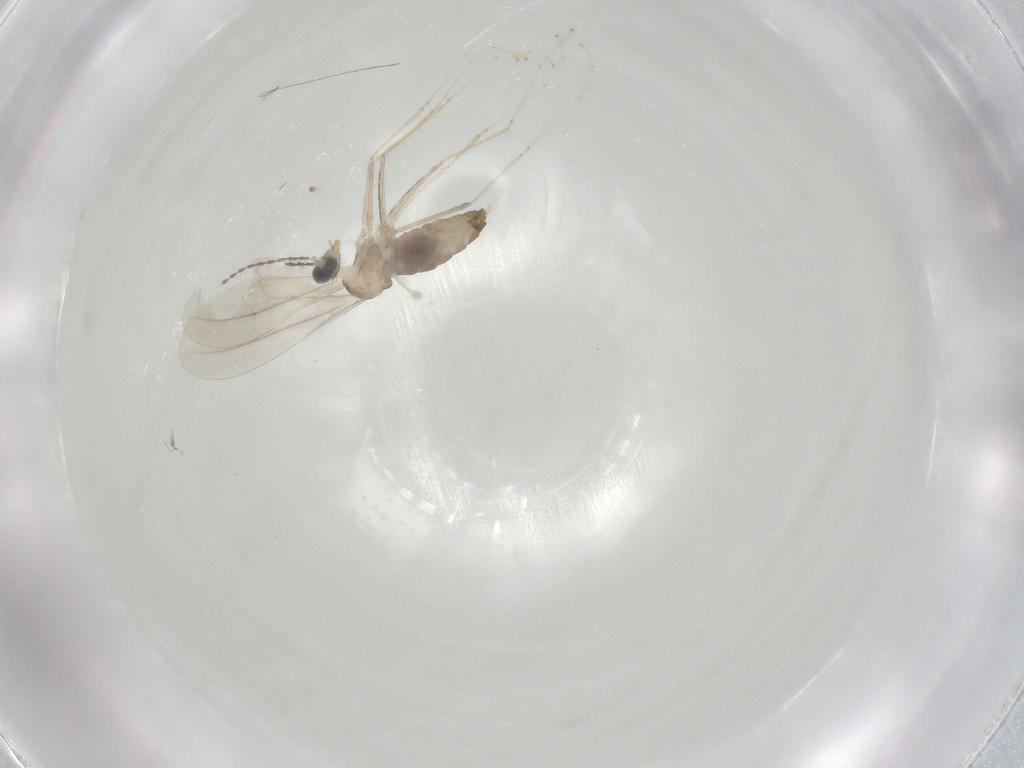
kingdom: Animalia
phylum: Arthropoda
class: Insecta
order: Diptera
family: Cecidomyiidae
